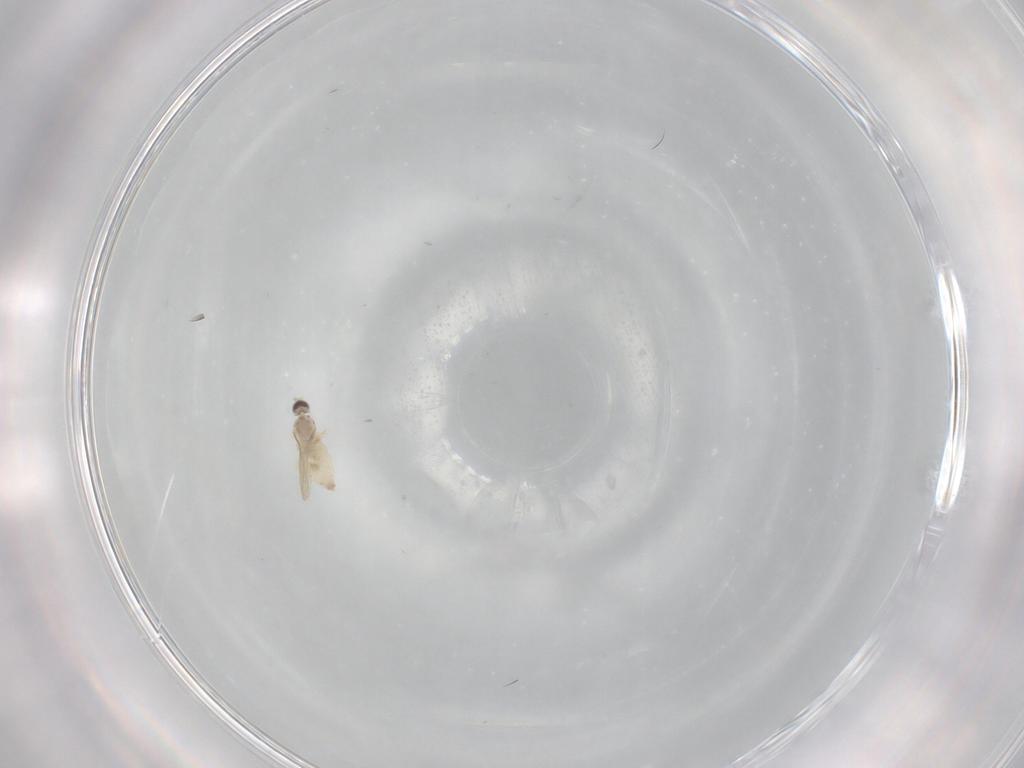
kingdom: Animalia
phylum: Arthropoda
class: Insecta
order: Diptera
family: Cecidomyiidae
